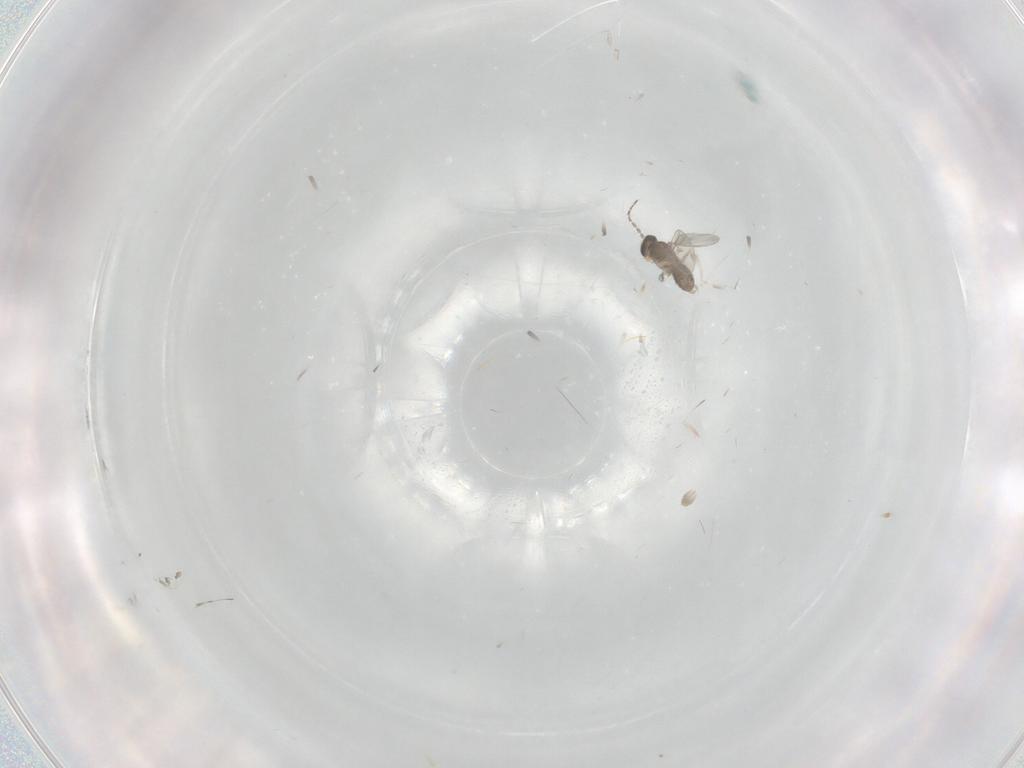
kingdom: Animalia
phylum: Arthropoda
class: Insecta
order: Diptera
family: Cecidomyiidae
